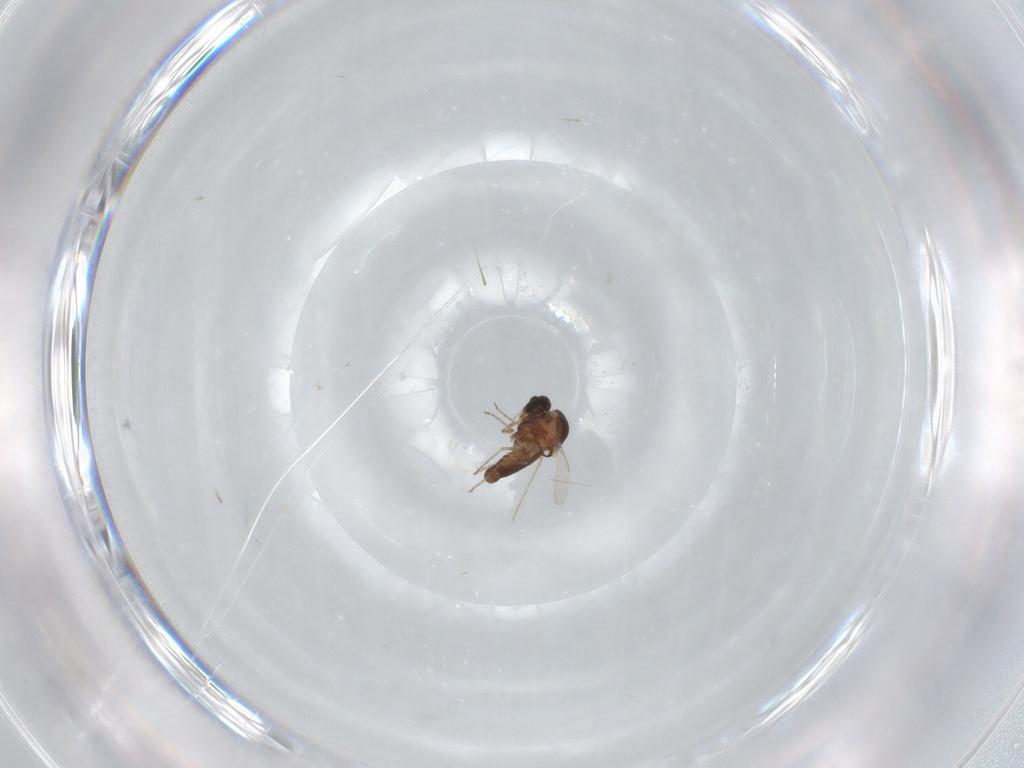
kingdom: Animalia
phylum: Arthropoda
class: Insecta
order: Diptera
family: Ceratopogonidae
